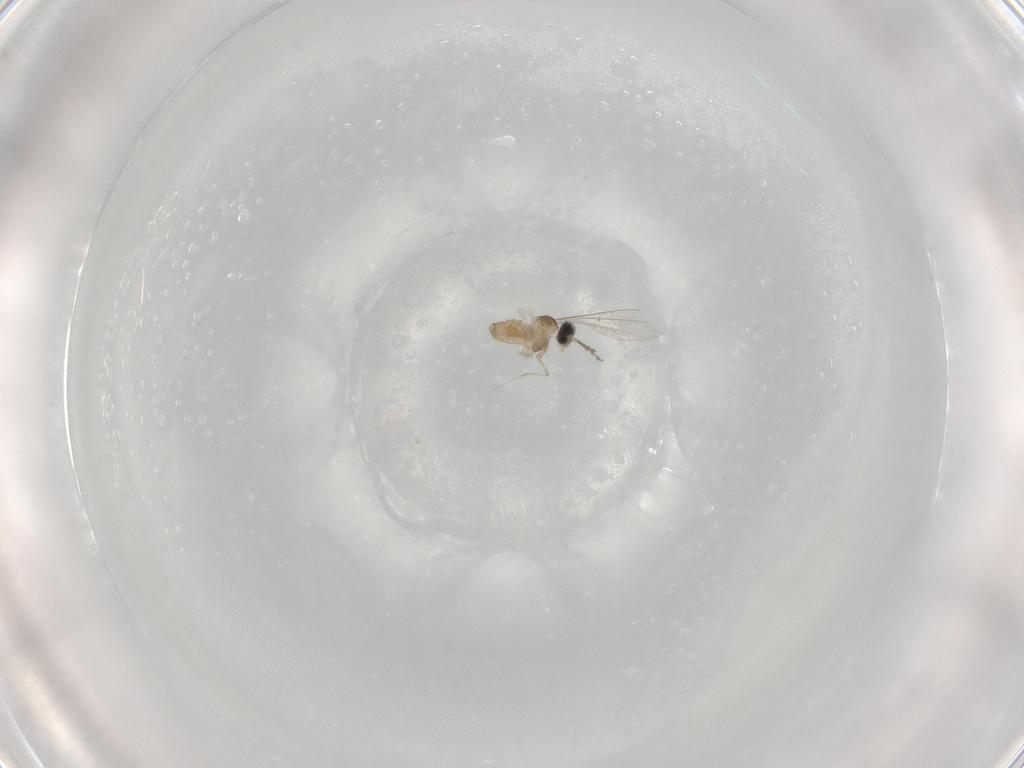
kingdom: Animalia
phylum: Arthropoda
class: Insecta
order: Diptera
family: Cecidomyiidae
